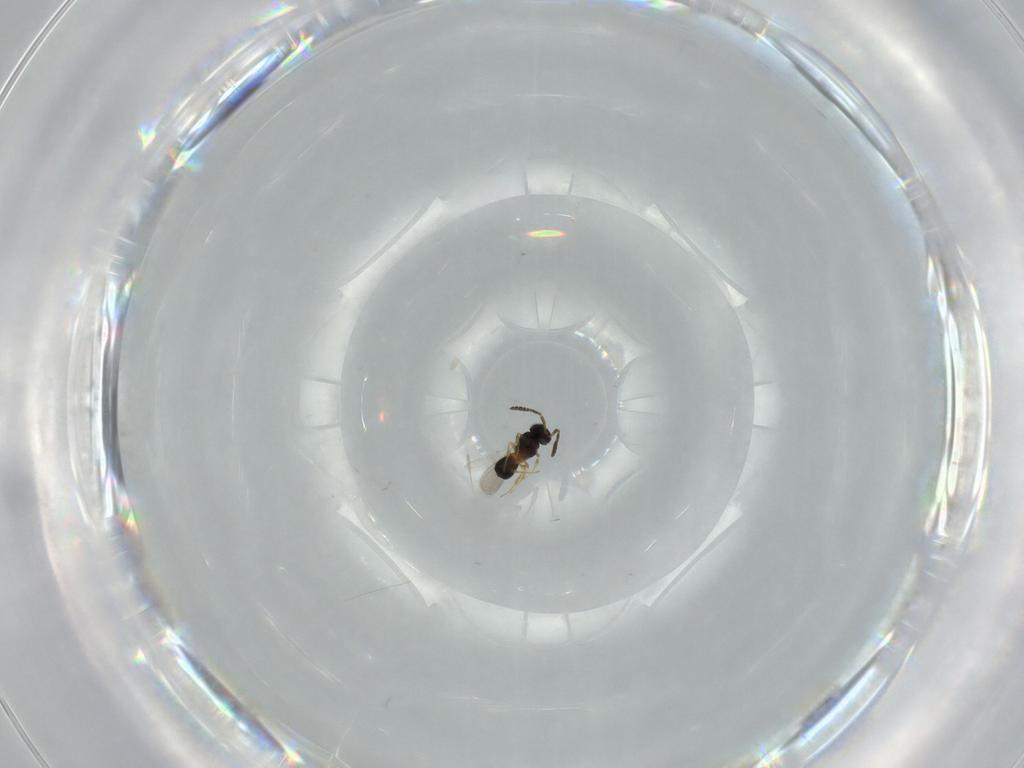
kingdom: Animalia
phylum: Arthropoda
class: Insecta
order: Hymenoptera
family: Scelionidae
